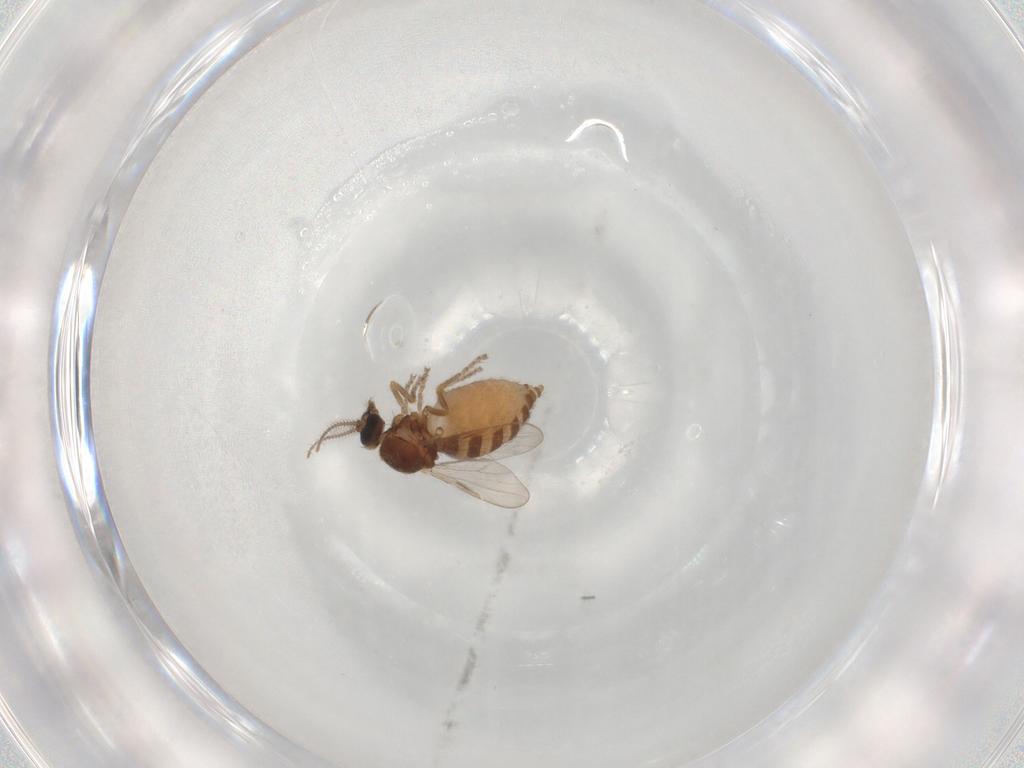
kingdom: Animalia
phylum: Arthropoda
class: Insecta
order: Diptera
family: Ceratopogonidae
